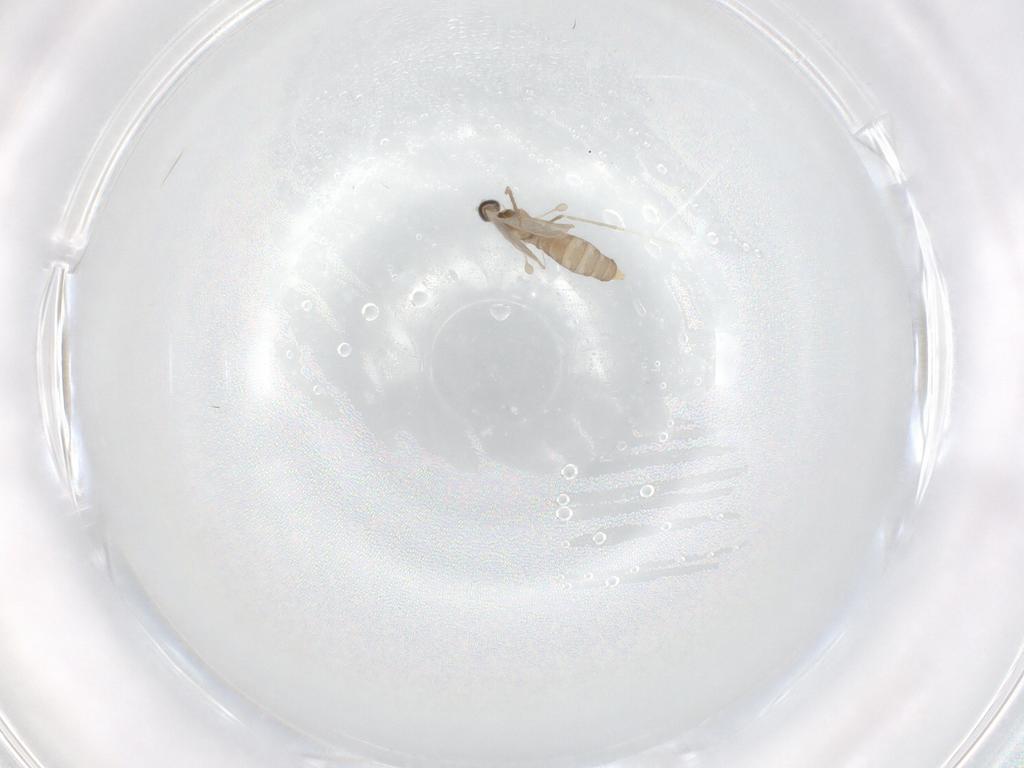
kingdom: Animalia
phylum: Arthropoda
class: Insecta
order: Diptera
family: Cecidomyiidae
